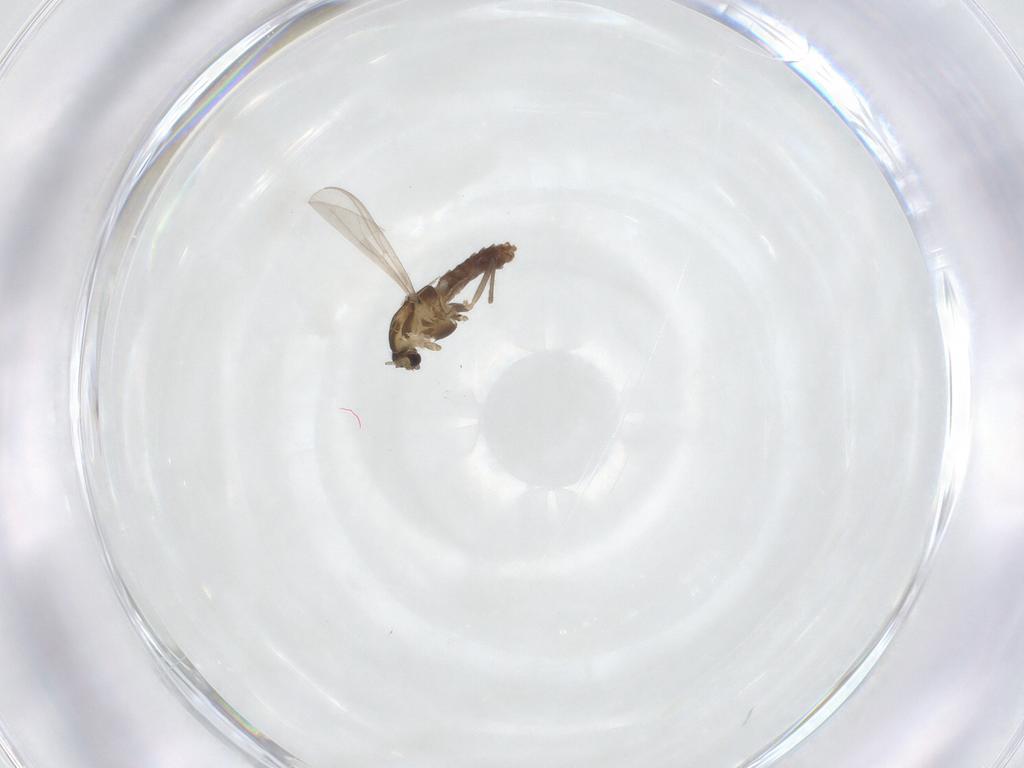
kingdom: Animalia
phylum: Arthropoda
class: Insecta
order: Diptera
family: Chironomidae
